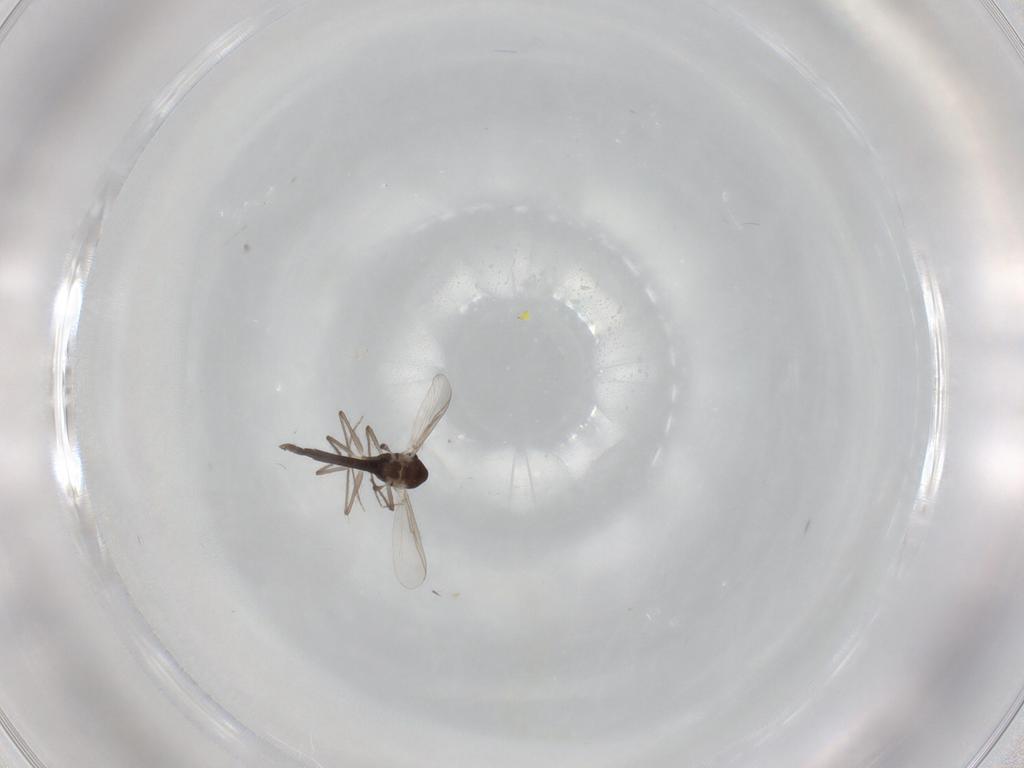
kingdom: Animalia
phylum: Arthropoda
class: Insecta
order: Diptera
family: Chironomidae
